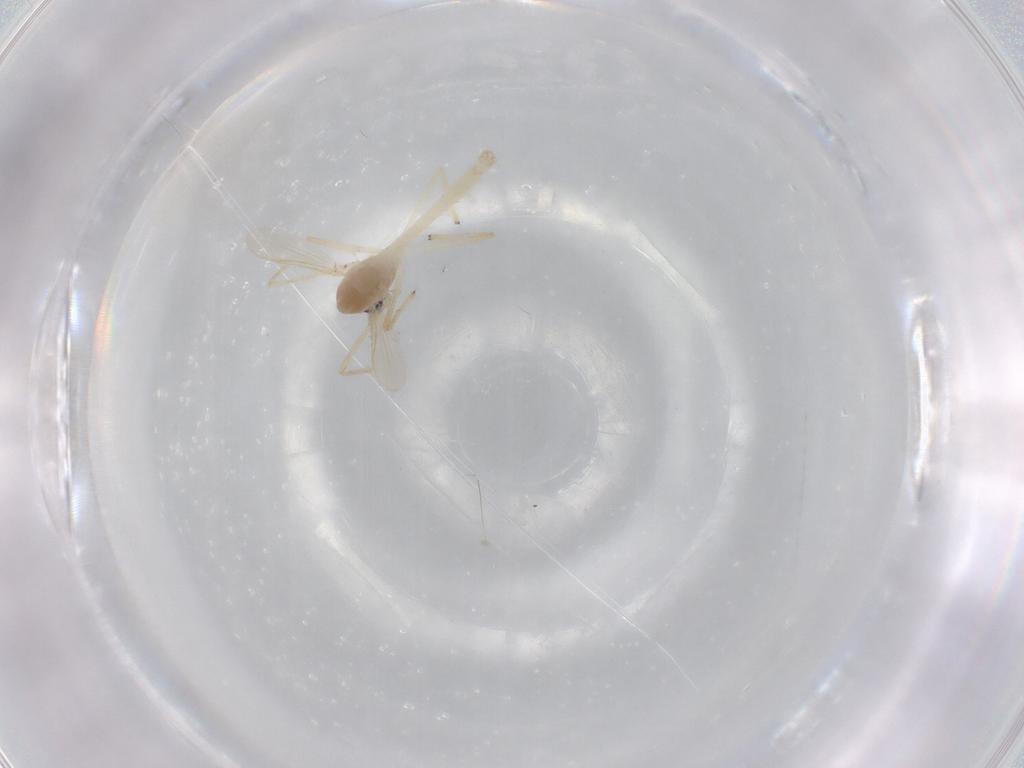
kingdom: Animalia
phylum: Arthropoda
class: Insecta
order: Diptera
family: Chironomidae
